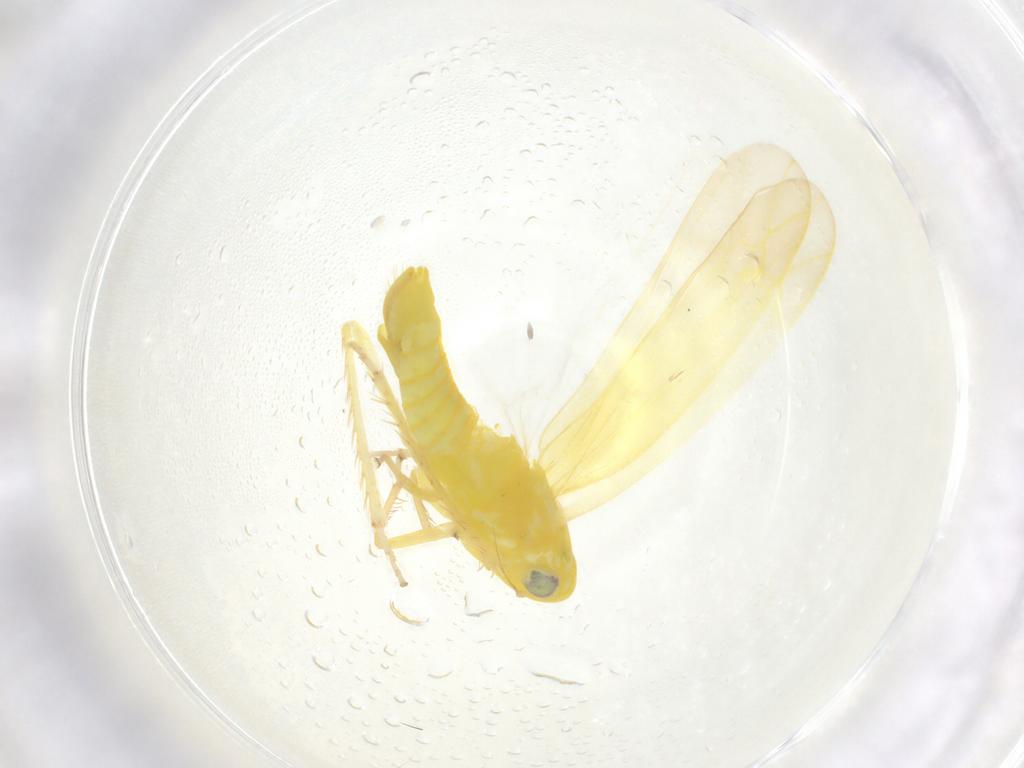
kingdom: Animalia
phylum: Arthropoda
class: Insecta
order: Hemiptera
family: Cicadellidae
